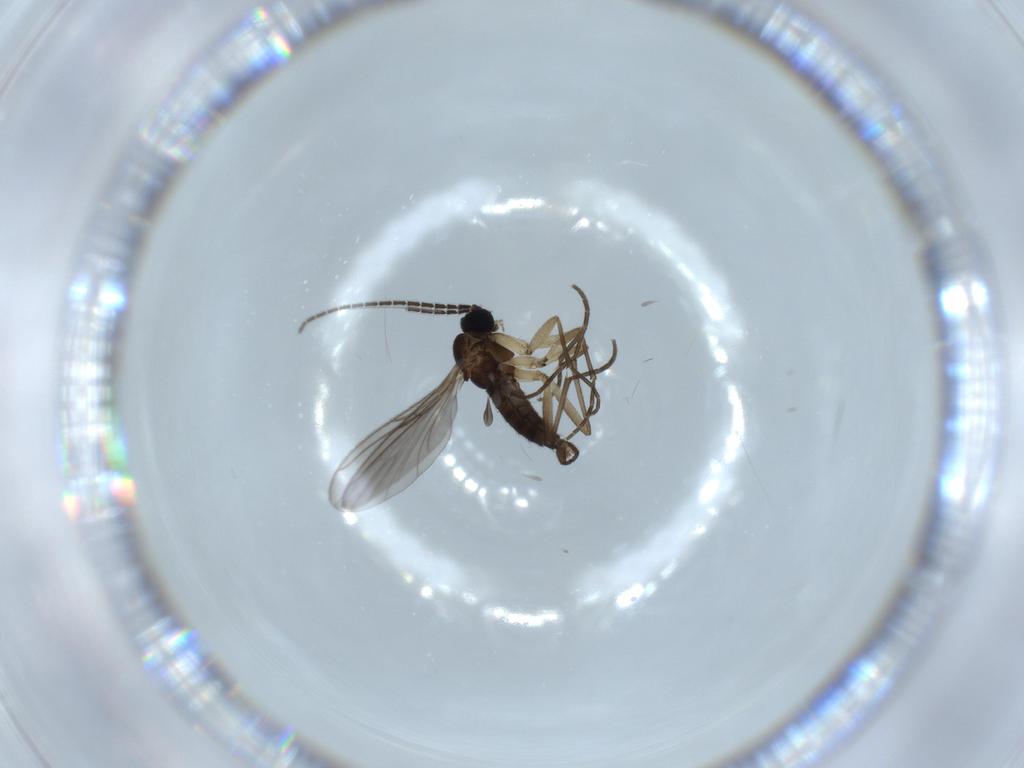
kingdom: Animalia
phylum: Arthropoda
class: Insecta
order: Diptera
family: Sciaridae
